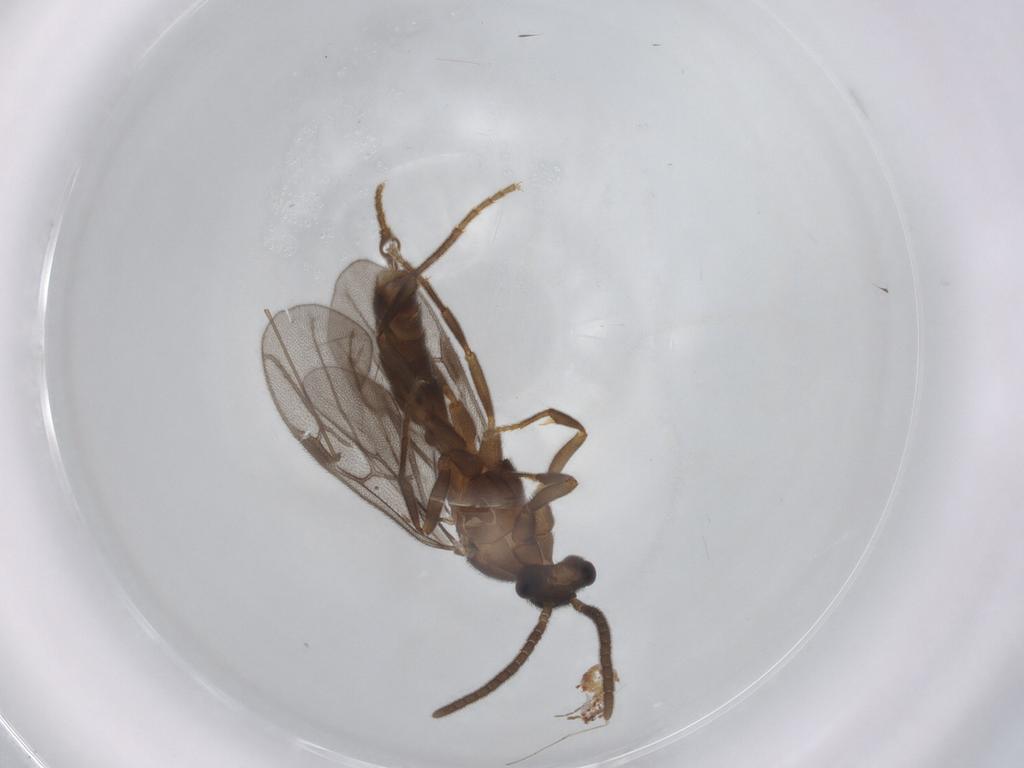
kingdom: Animalia
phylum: Arthropoda
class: Insecta
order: Hymenoptera
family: Formicidae
